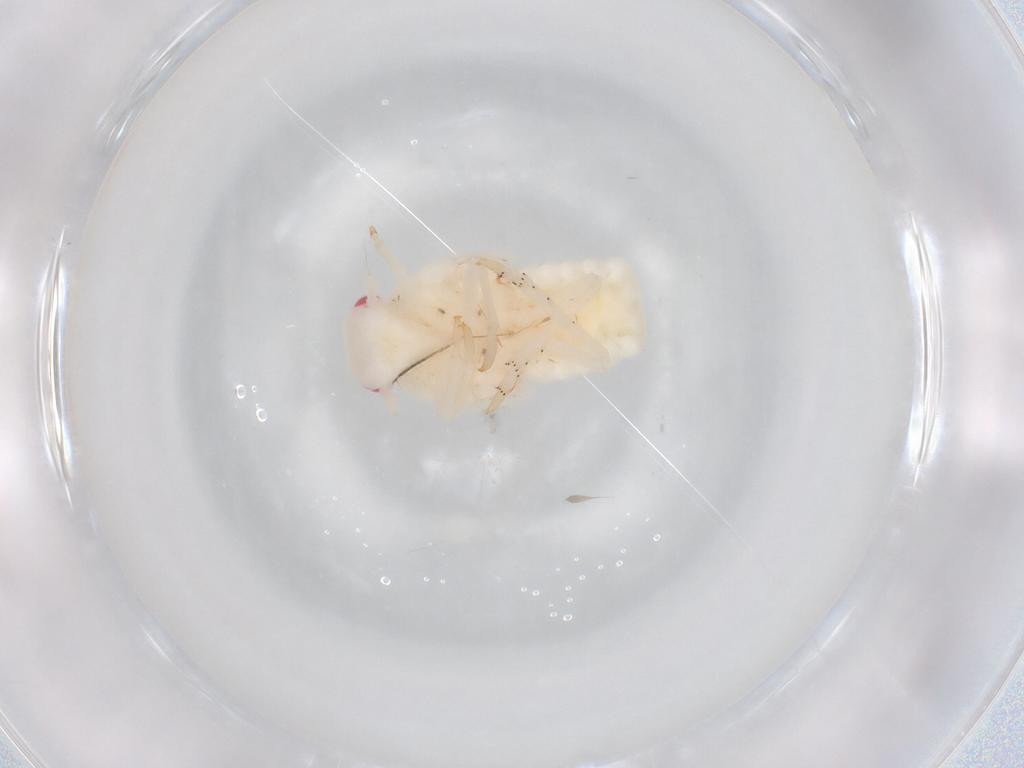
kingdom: Animalia
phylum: Arthropoda
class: Insecta
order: Hemiptera
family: Flatidae
